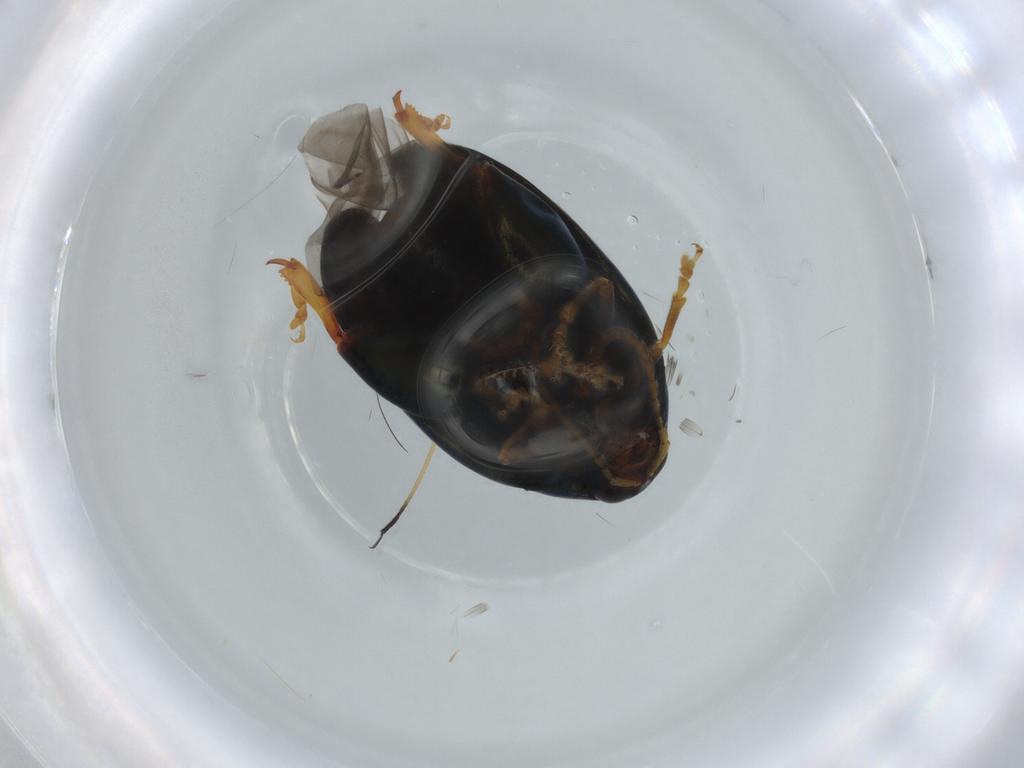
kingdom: Animalia
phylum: Arthropoda
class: Insecta
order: Coleoptera
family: Chrysomelidae
